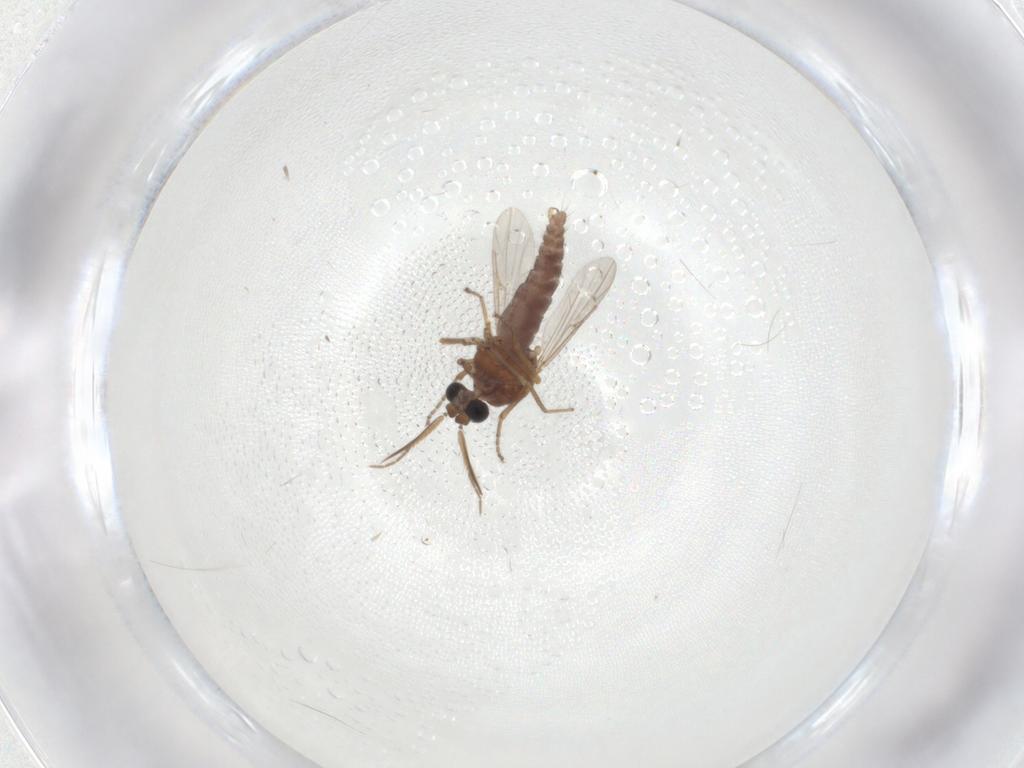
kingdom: Animalia
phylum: Arthropoda
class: Insecta
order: Diptera
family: Ceratopogonidae
